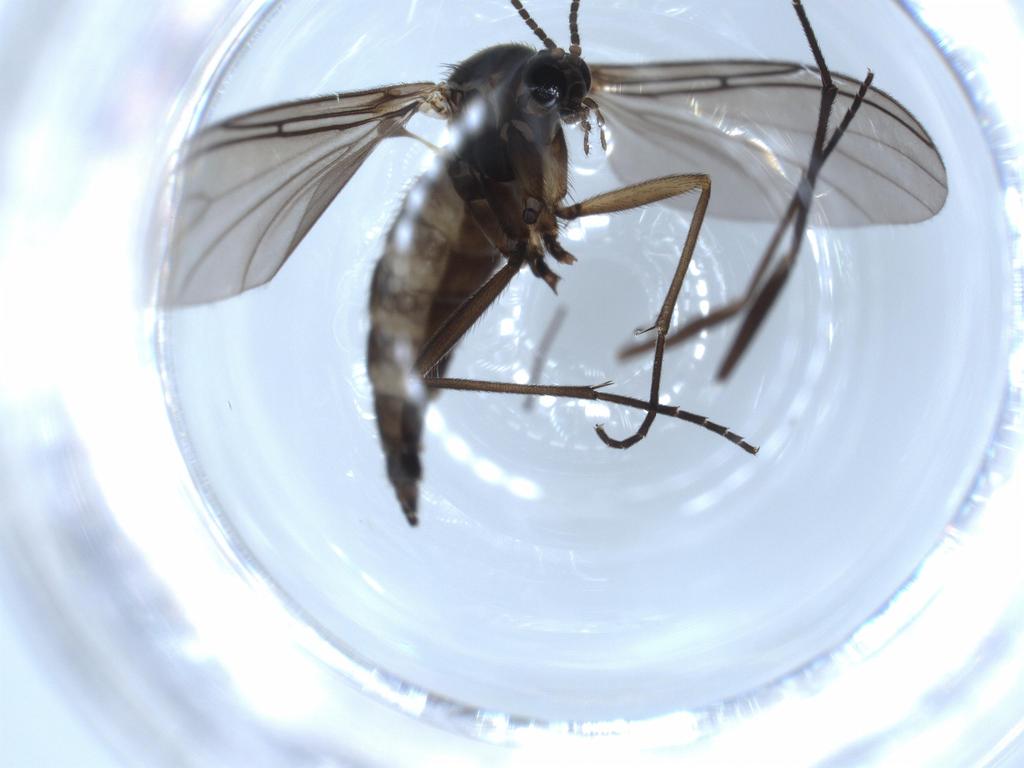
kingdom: Animalia
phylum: Arthropoda
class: Insecta
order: Diptera
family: Sciaridae
